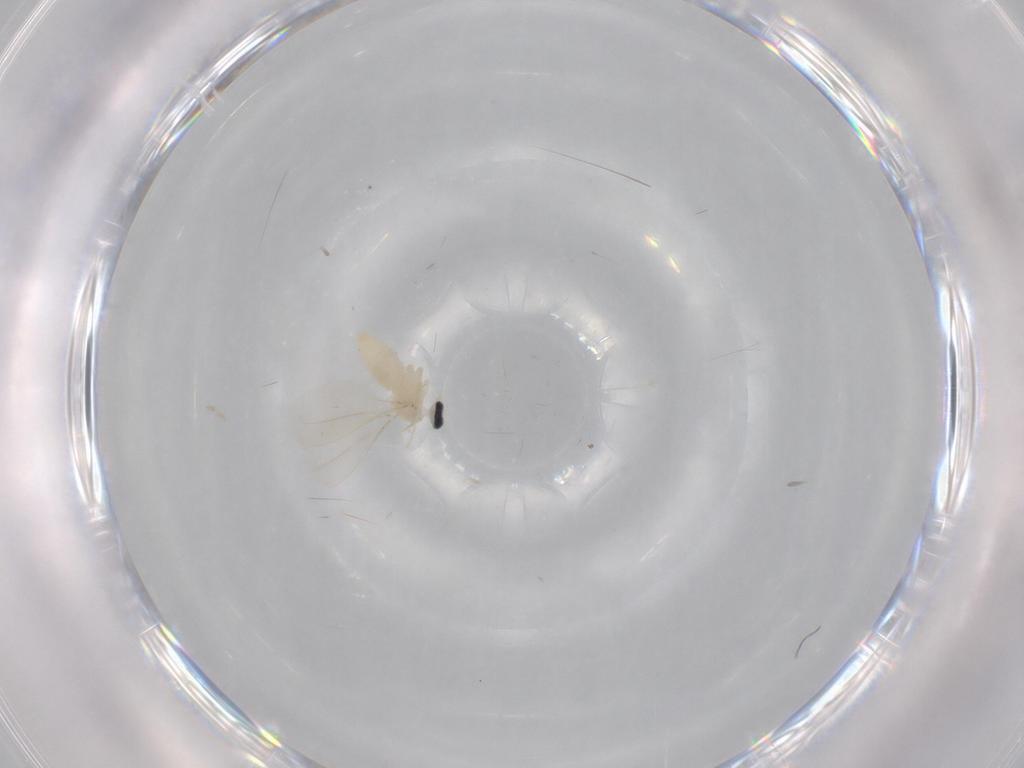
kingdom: Animalia
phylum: Arthropoda
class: Insecta
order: Diptera
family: Cecidomyiidae
